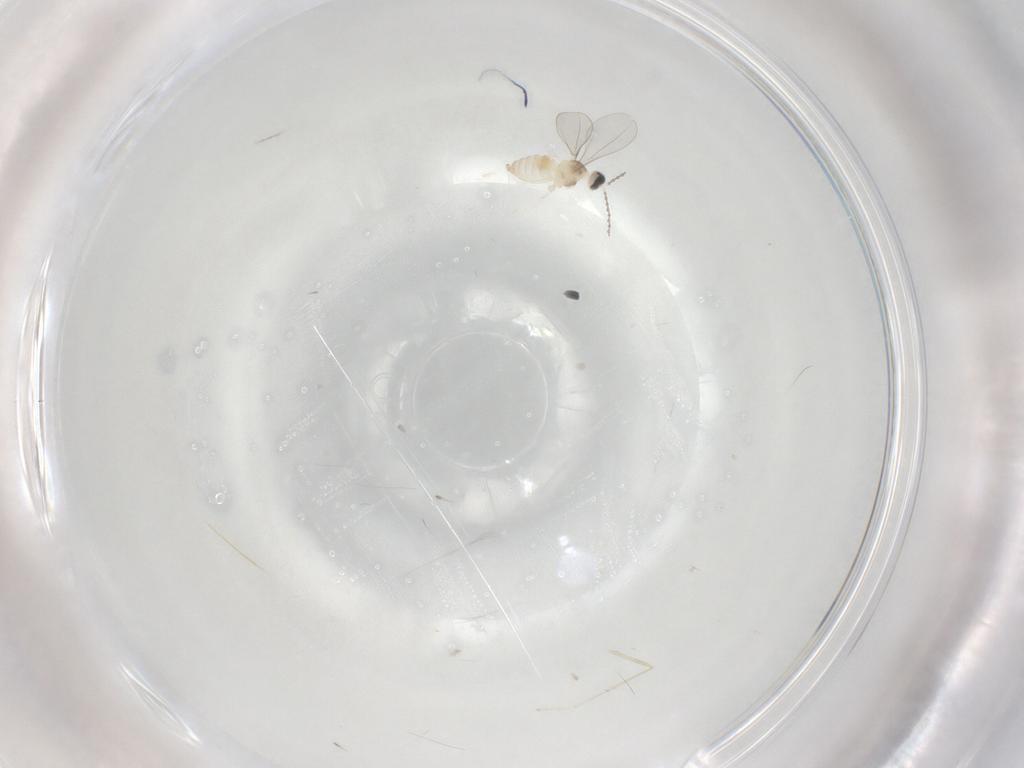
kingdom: Animalia
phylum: Arthropoda
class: Insecta
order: Diptera
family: Cecidomyiidae
